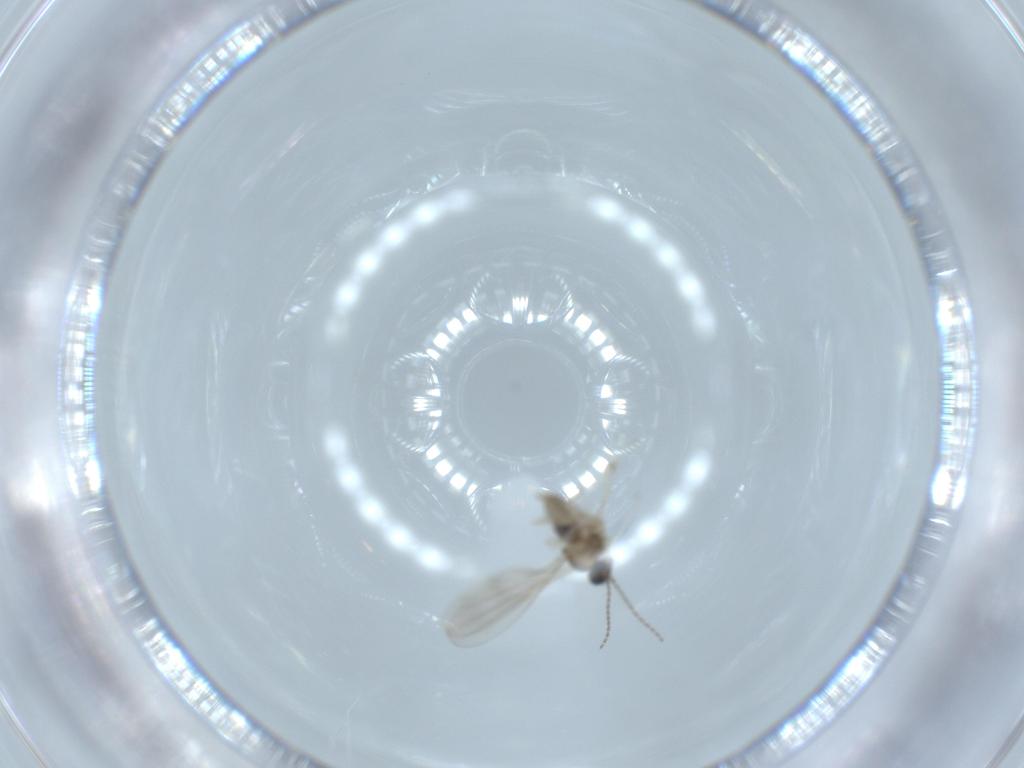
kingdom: Animalia
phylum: Arthropoda
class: Insecta
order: Diptera
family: Cecidomyiidae
